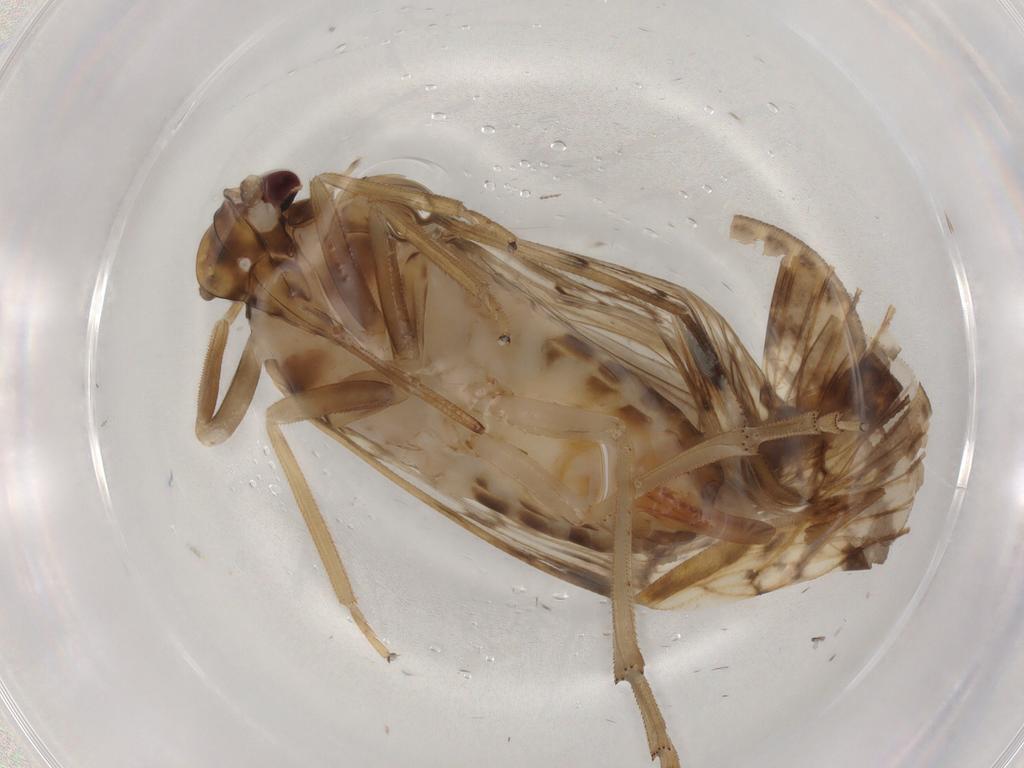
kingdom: Animalia
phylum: Arthropoda
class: Insecta
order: Hemiptera
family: Cixiidae
